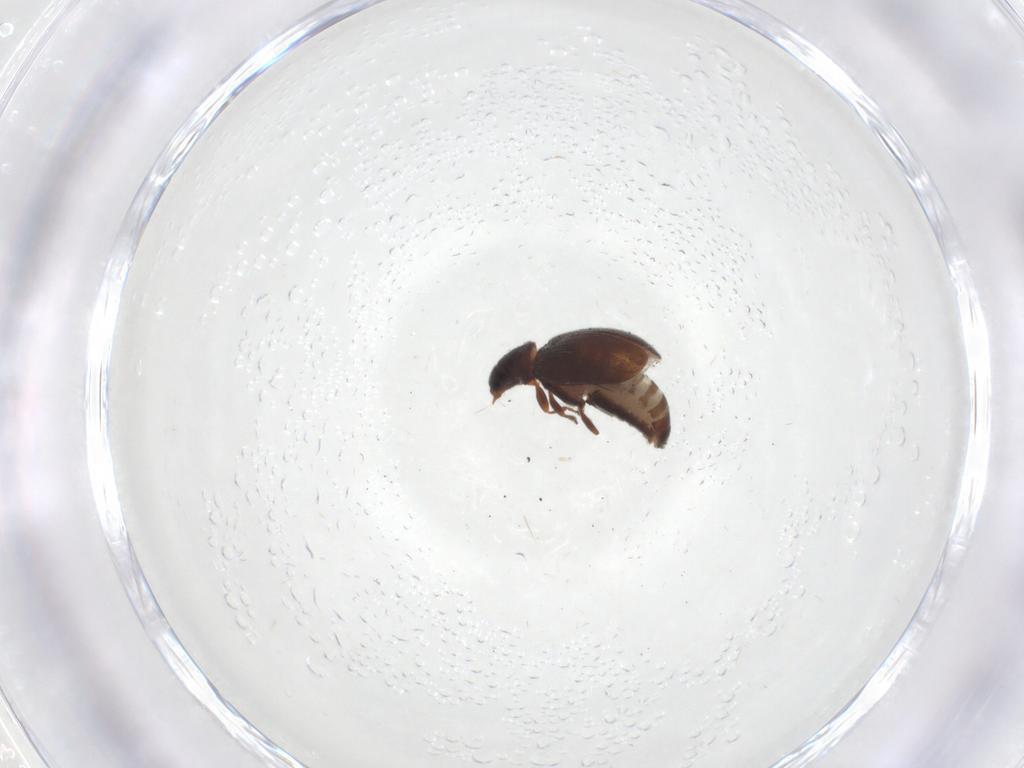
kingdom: Animalia
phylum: Arthropoda
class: Insecta
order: Coleoptera
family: Latridiidae
